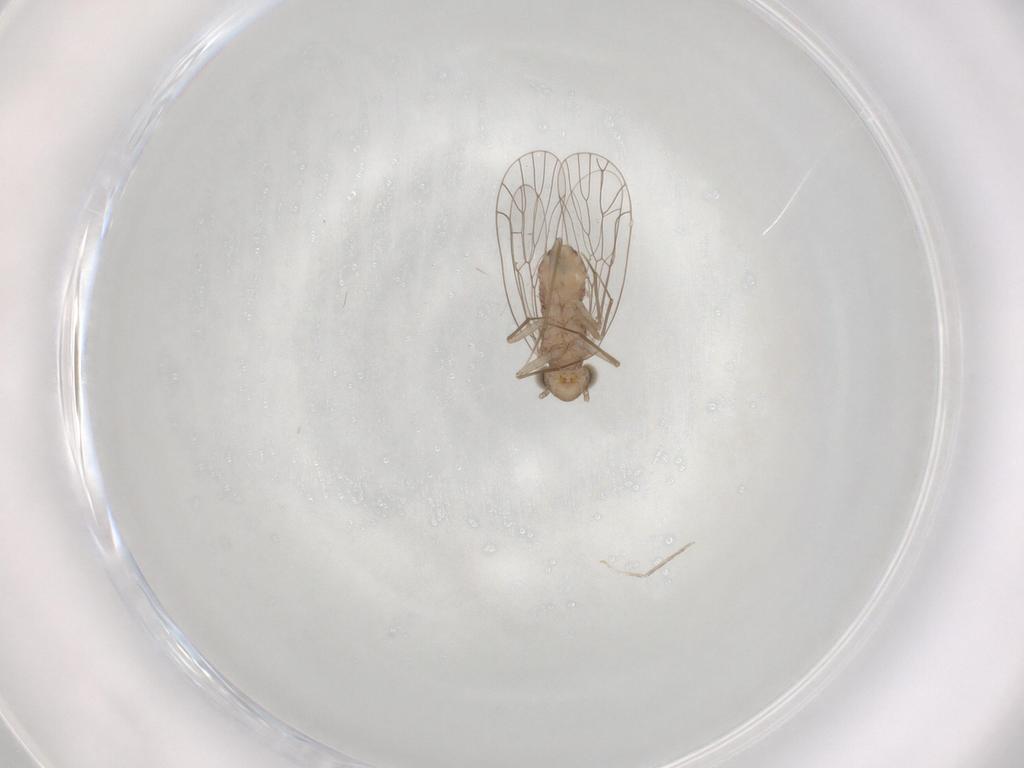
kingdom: Animalia
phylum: Arthropoda
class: Insecta
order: Psocodea
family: Amphientomidae
